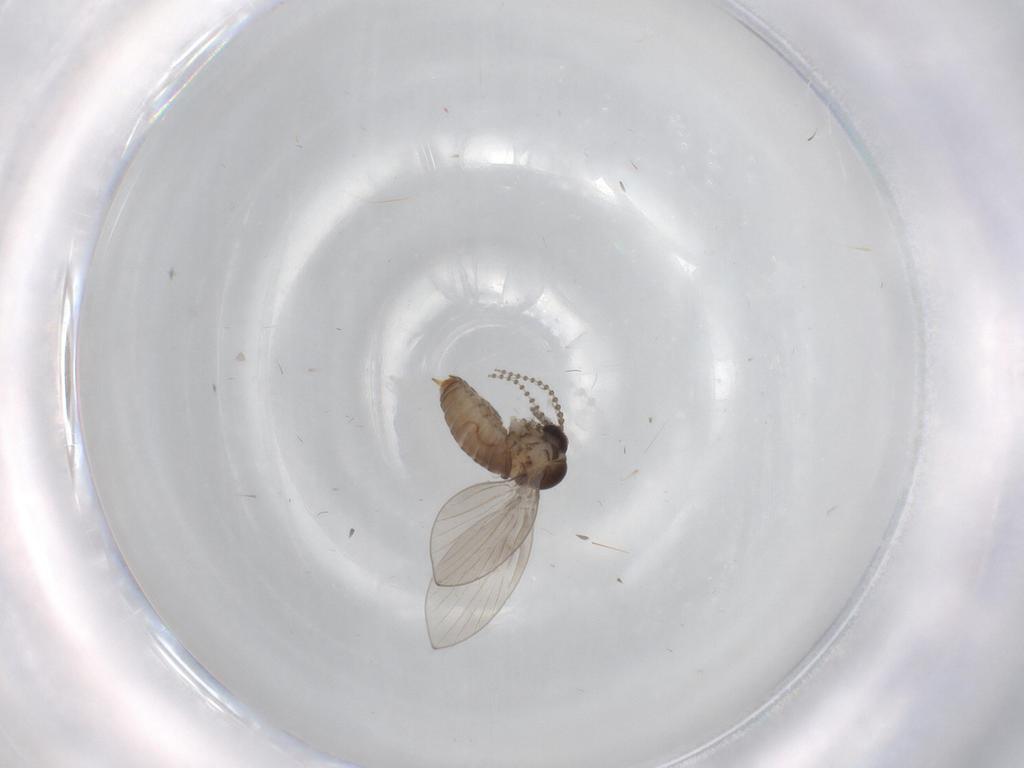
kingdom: Animalia
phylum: Arthropoda
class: Insecta
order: Diptera
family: Psychodidae
